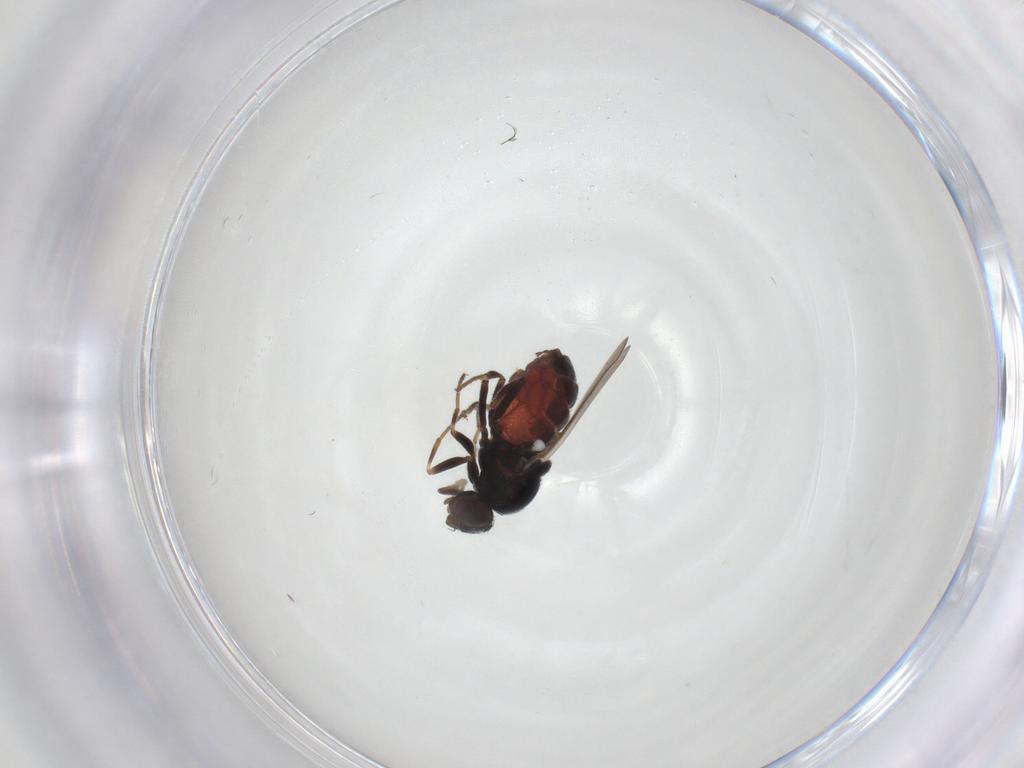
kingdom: Animalia
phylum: Arthropoda
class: Insecta
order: Diptera
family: Chloropidae
